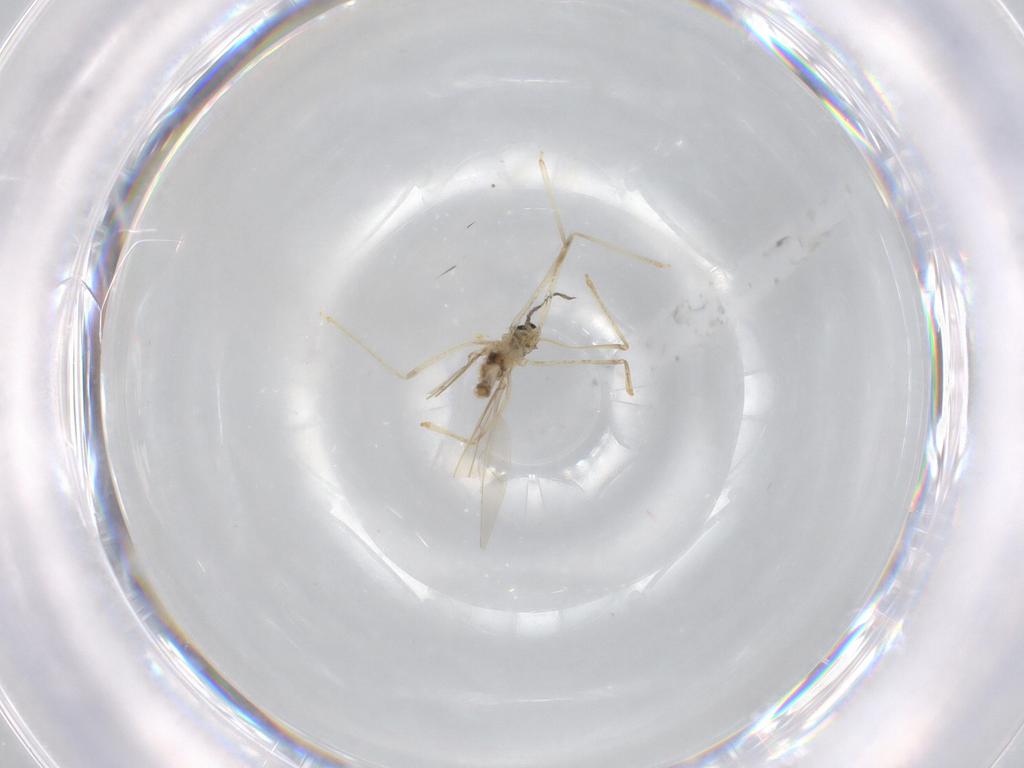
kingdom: Animalia
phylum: Arthropoda
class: Insecta
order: Diptera
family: Cecidomyiidae
